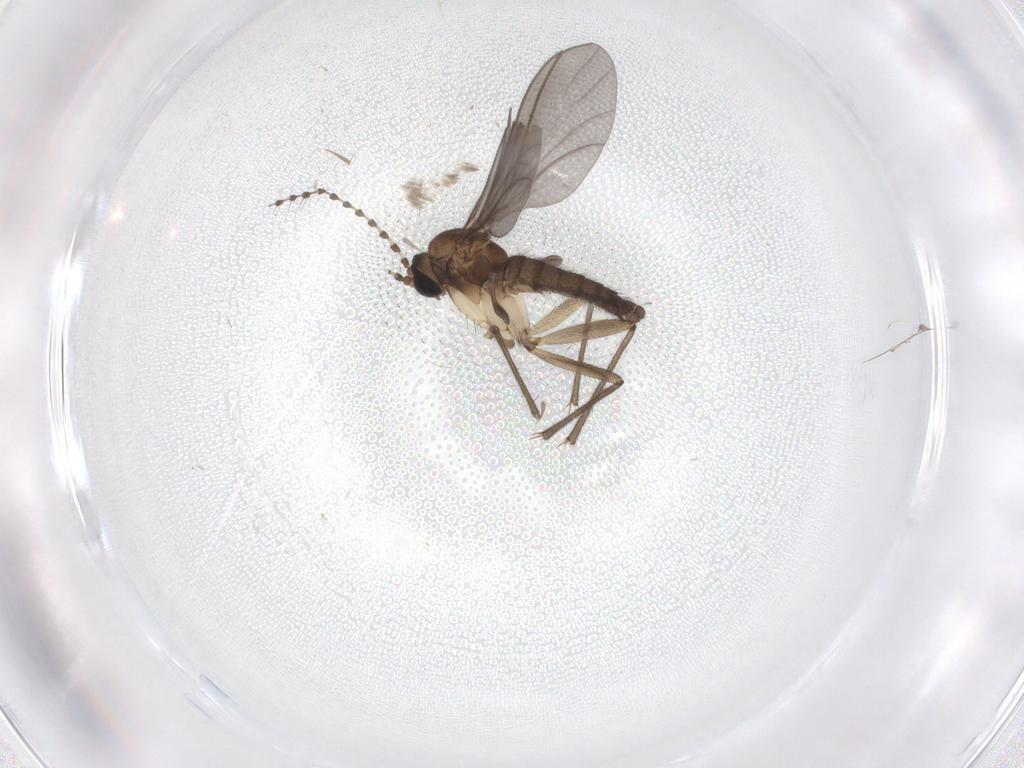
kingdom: Animalia
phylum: Arthropoda
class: Insecta
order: Diptera
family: Sciaridae
